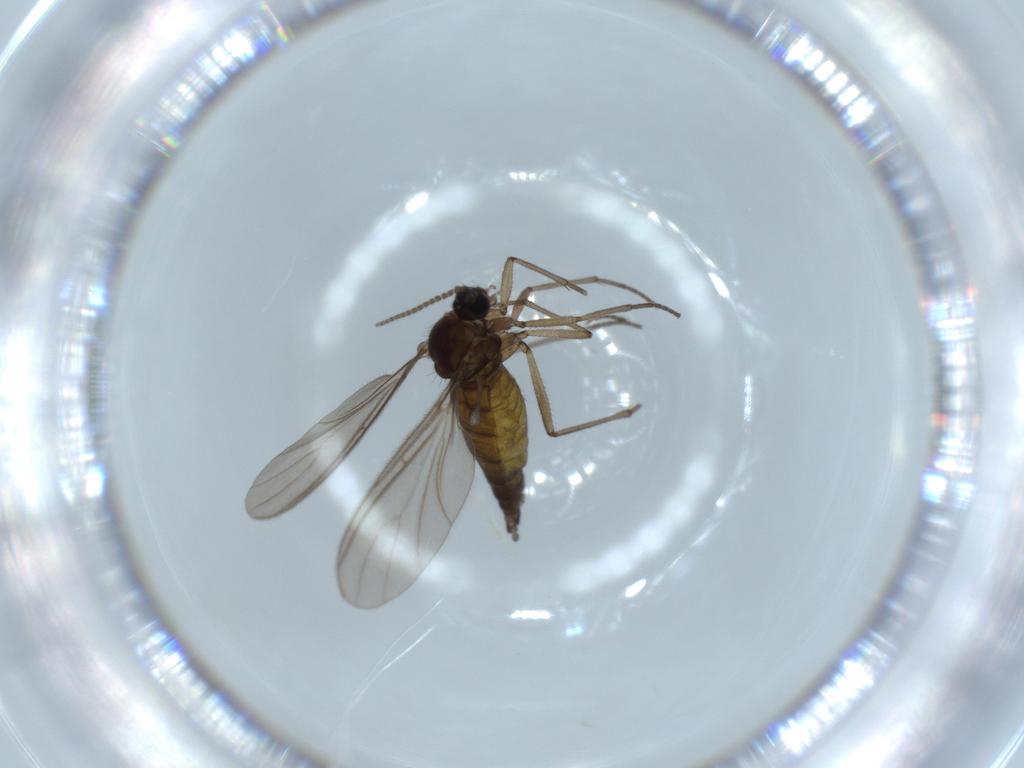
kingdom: Animalia
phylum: Arthropoda
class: Insecta
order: Diptera
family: Sciaridae
